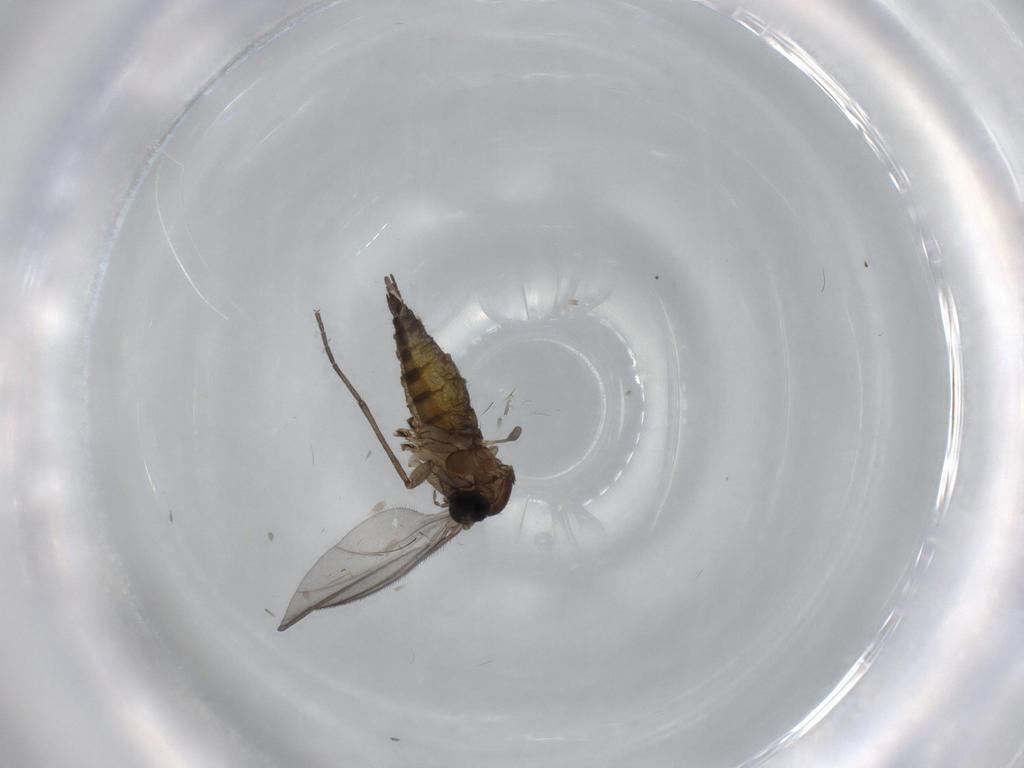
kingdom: Animalia
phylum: Arthropoda
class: Insecta
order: Diptera
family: Sciaridae
